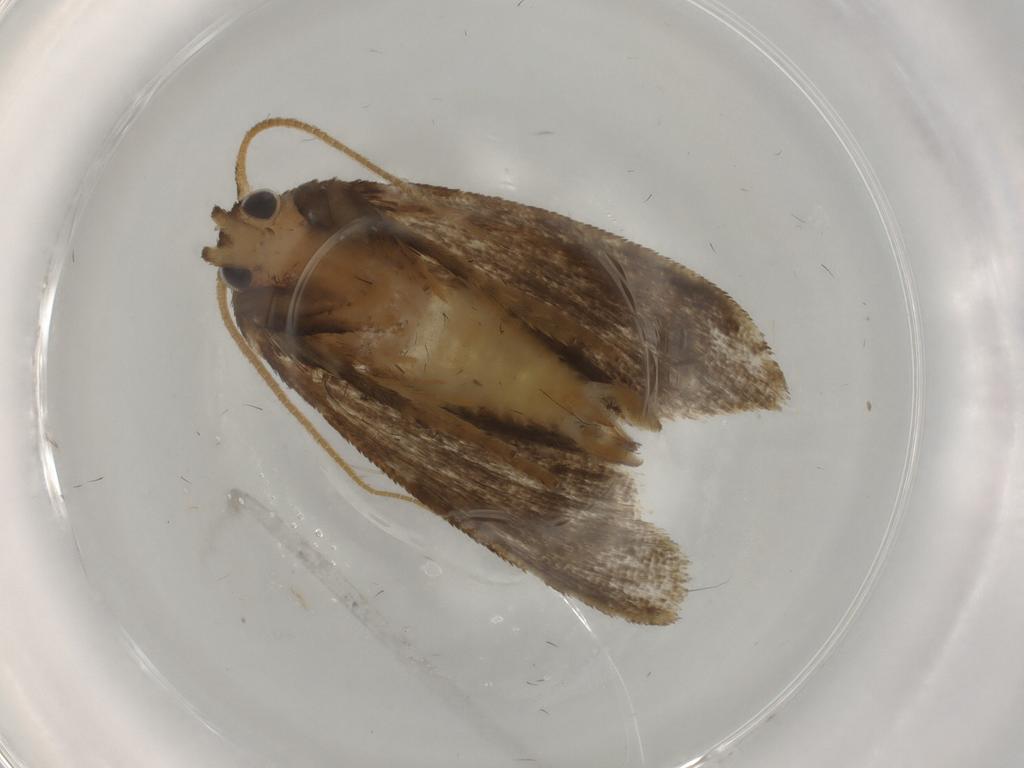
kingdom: Animalia
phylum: Arthropoda
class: Insecta
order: Lepidoptera
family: Limacodidae
